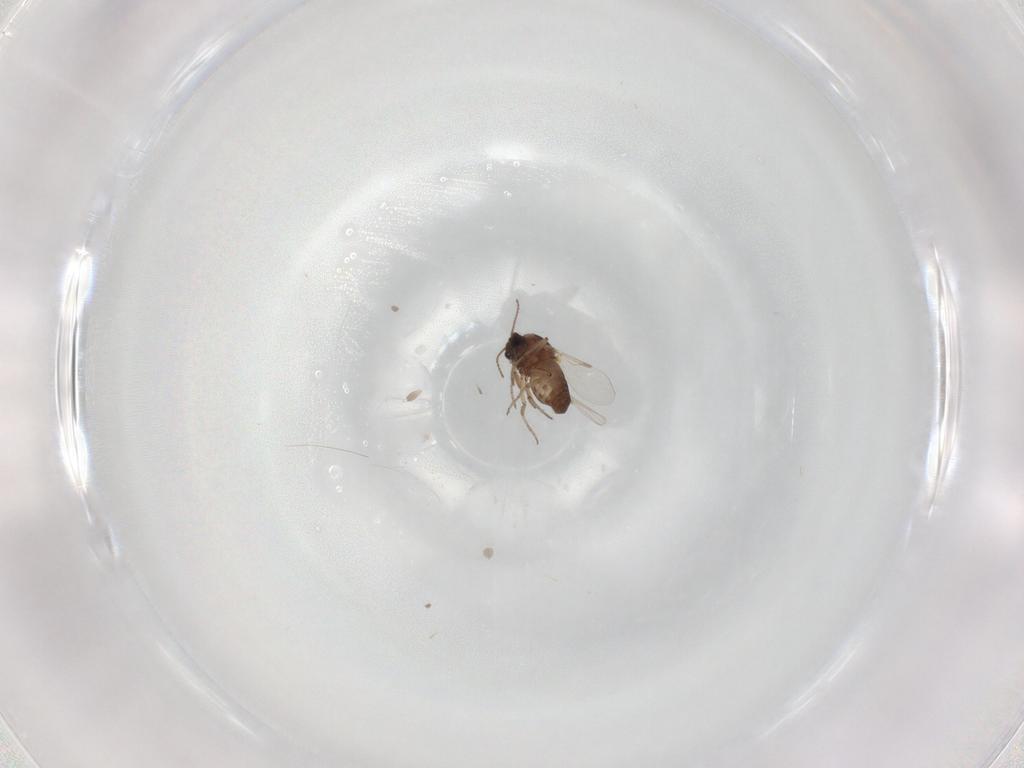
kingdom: Animalia
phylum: Arthropoda
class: Insecta
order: Diptera
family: Ceratopogonidae
